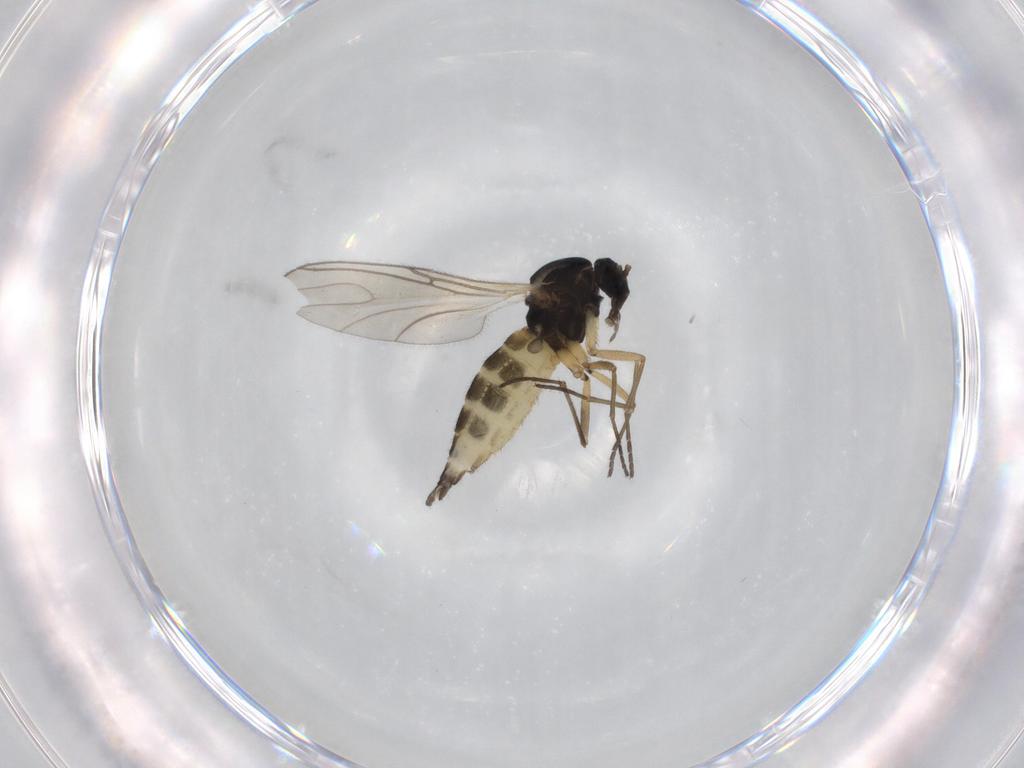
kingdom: Animalia
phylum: Arthropoda
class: Insecta
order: Diptera
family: Sciaridae
